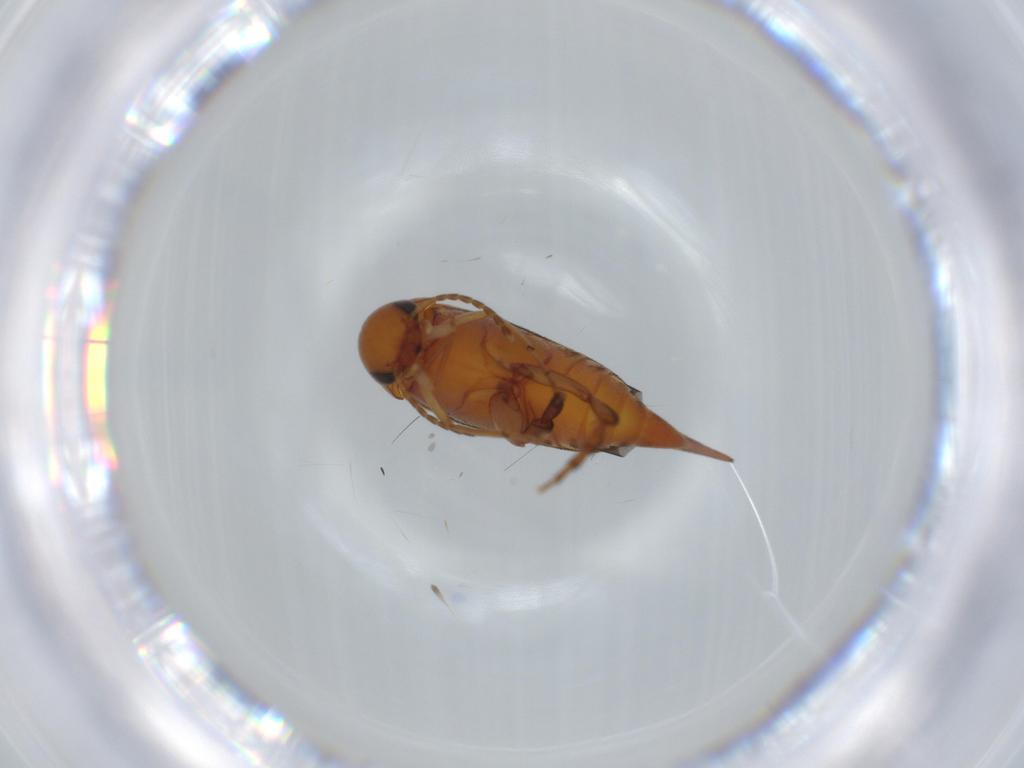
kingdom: Animalia
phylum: Arthropoda
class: Insecta
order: Coleoptera
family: Mordellidae
